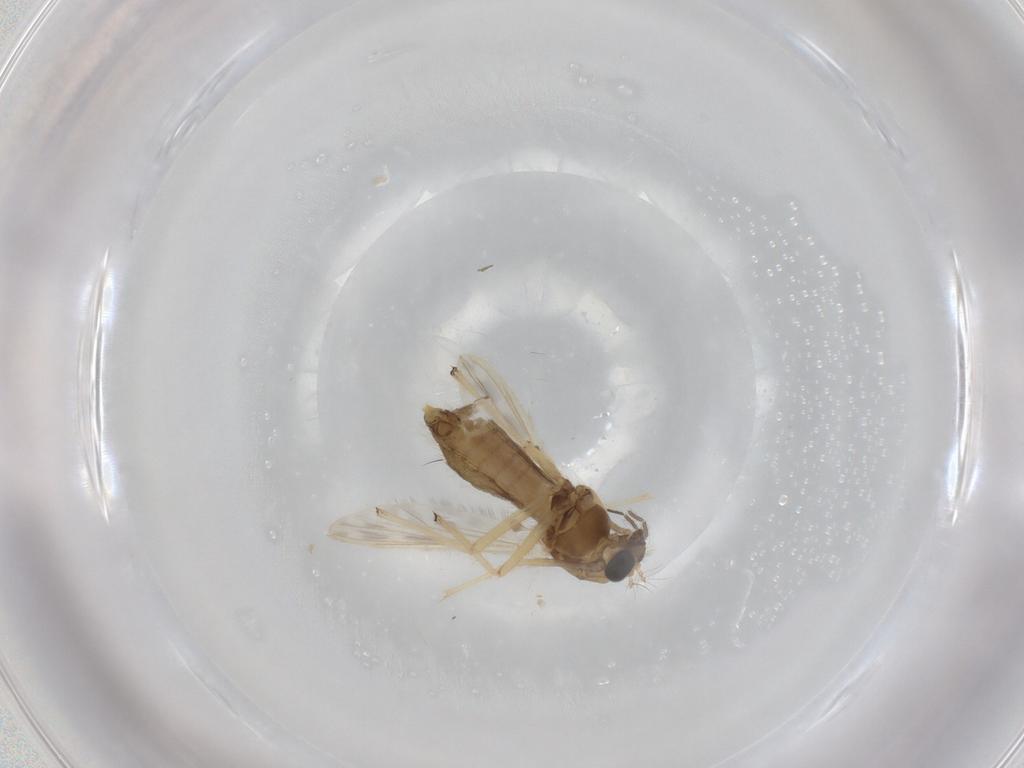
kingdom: Animalia
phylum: Arthropoda
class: Insecta
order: Diptera
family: Chironomidae
